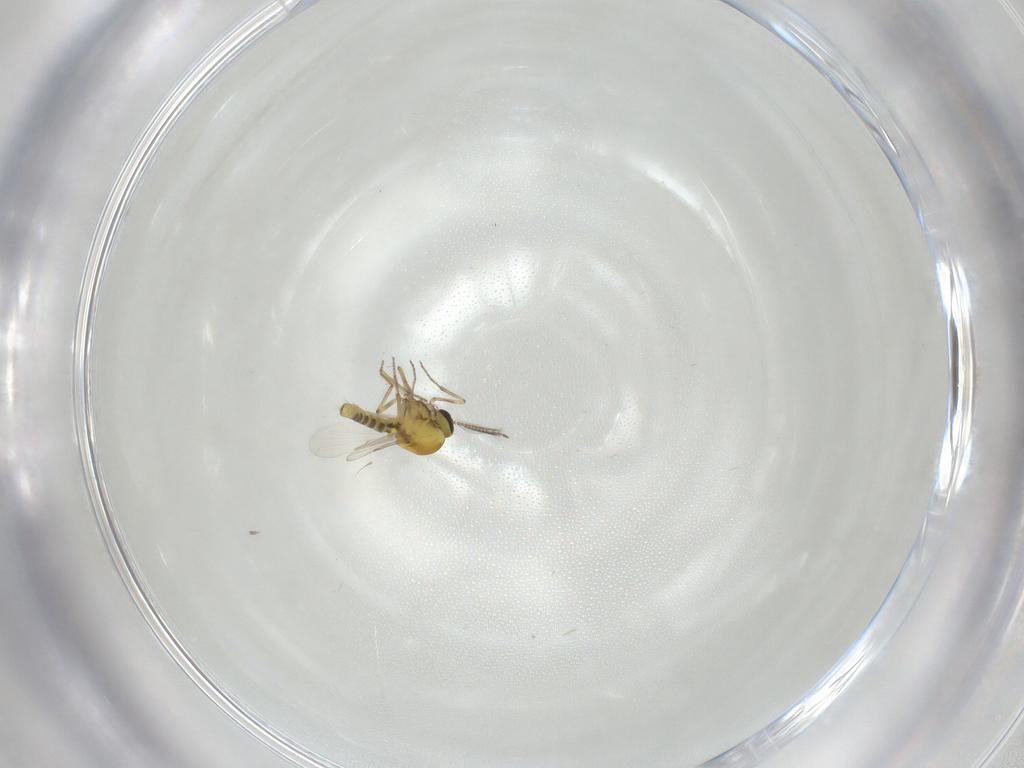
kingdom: Animalia
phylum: Arthropoda
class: Insecta
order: Diptera
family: Ceratopogonidae
